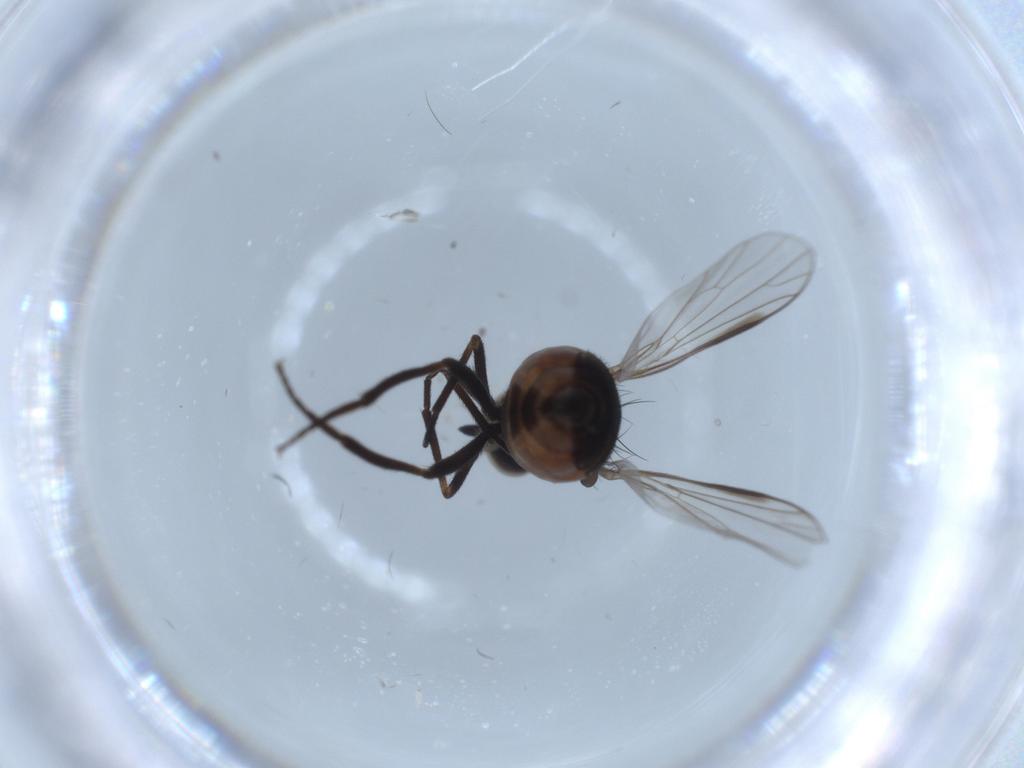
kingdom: Animalia
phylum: Arthropoda
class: Insecta
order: Diptera
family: Empididae
